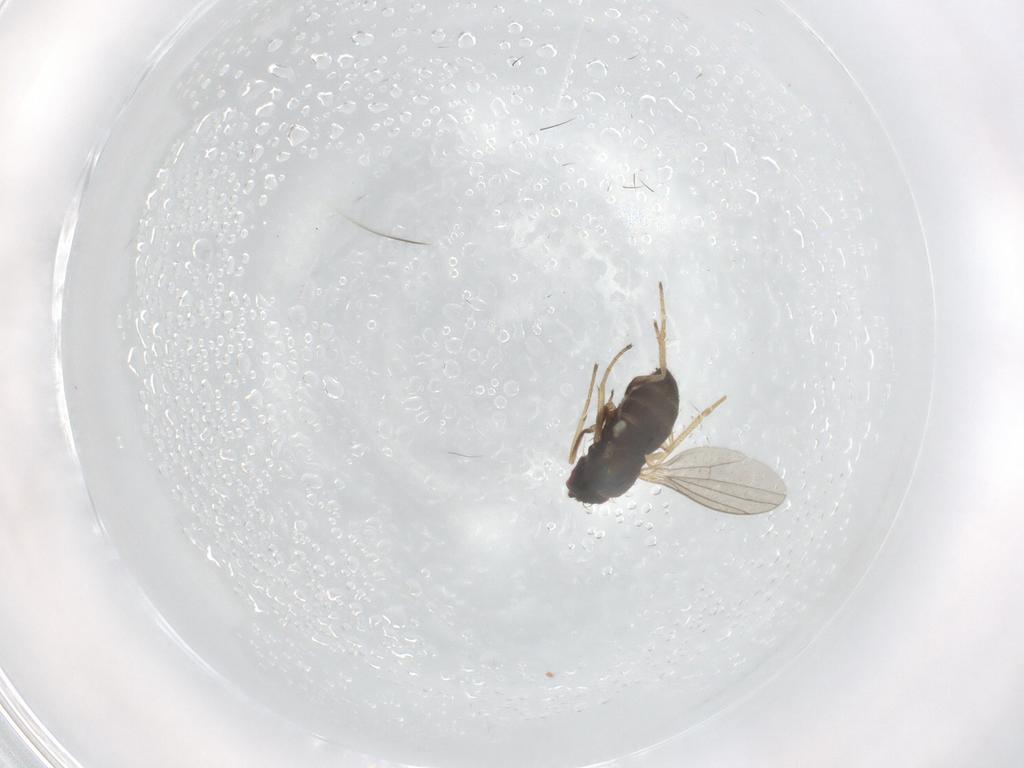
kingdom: Animalia
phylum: Arthropoda
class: Insecta
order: Diptera
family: Dolichopodidae
